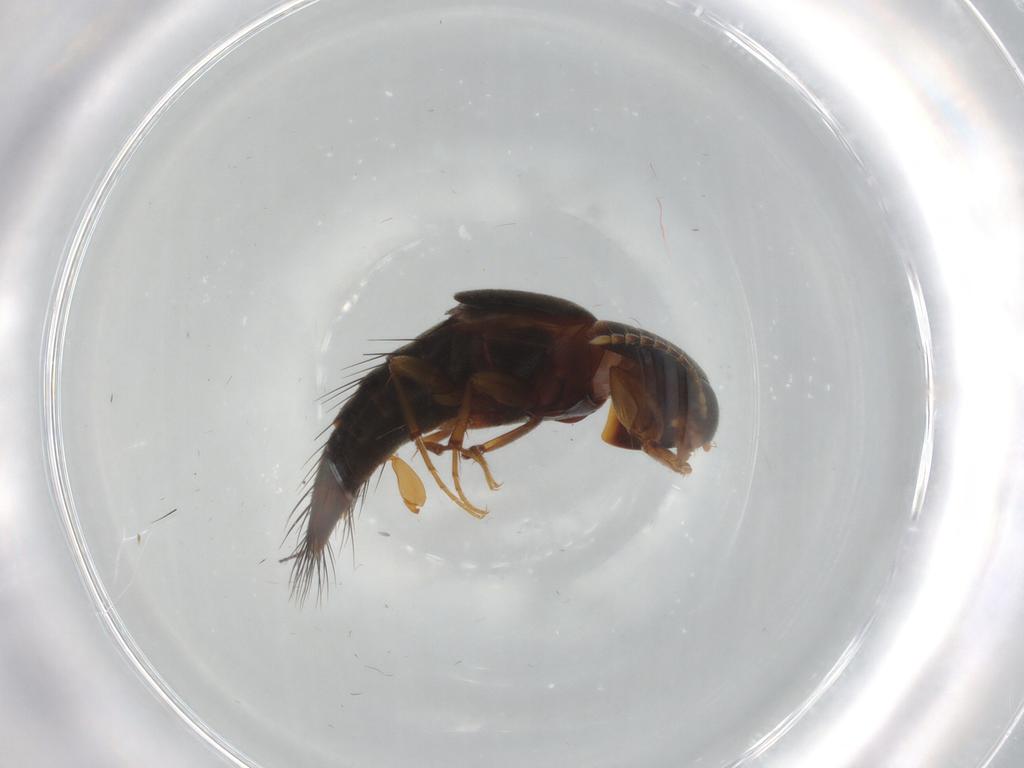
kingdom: Animalia
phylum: Arthropoda
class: Insecta
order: Coleoptera
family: Staphylinidae
